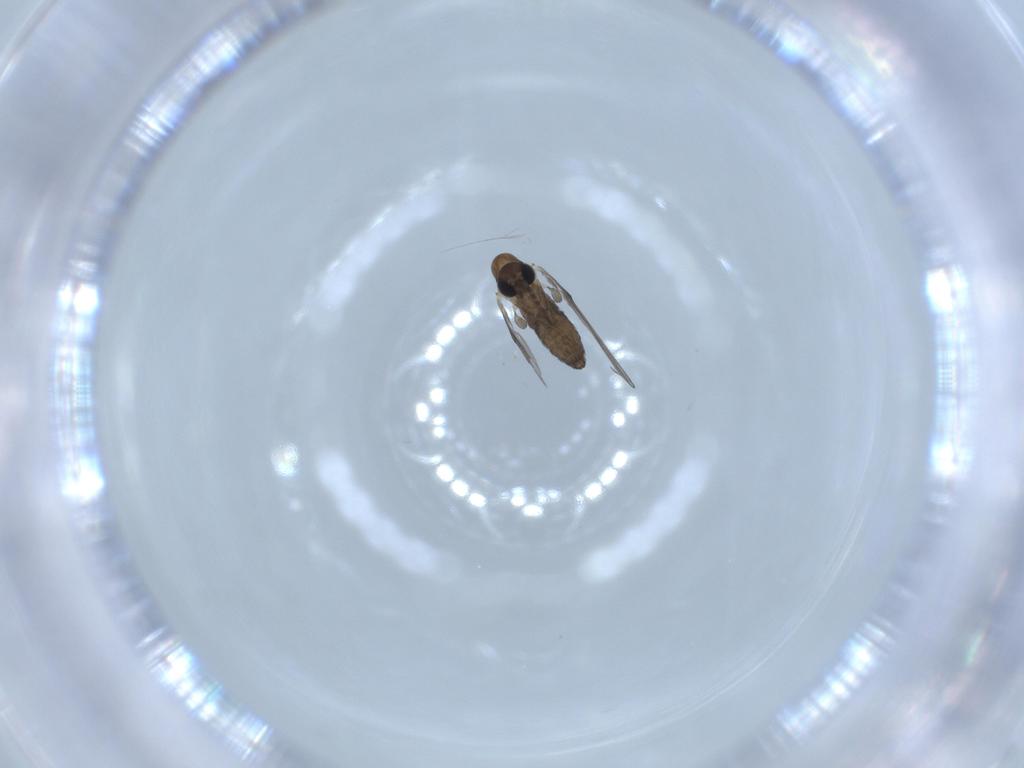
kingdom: Animalia
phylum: Arthropoda
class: Insecta
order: Diptera
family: Psychodidae
